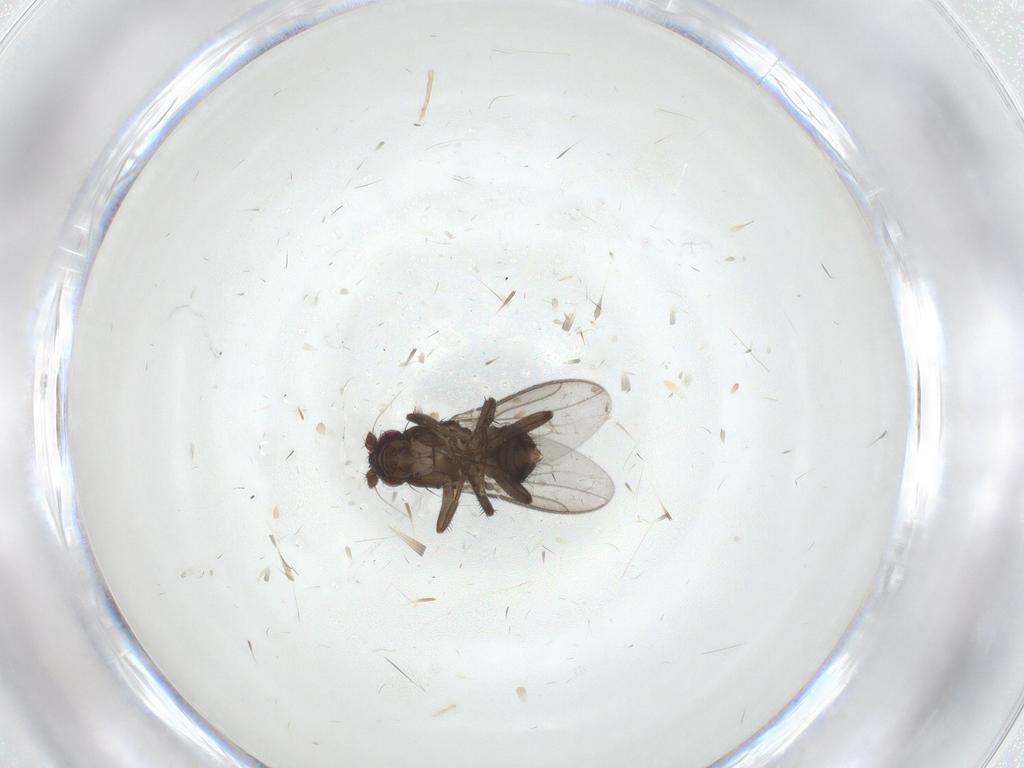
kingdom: Animalia
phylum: Arthropoda
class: Insecta
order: Diptera
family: Sphaeroceridae
